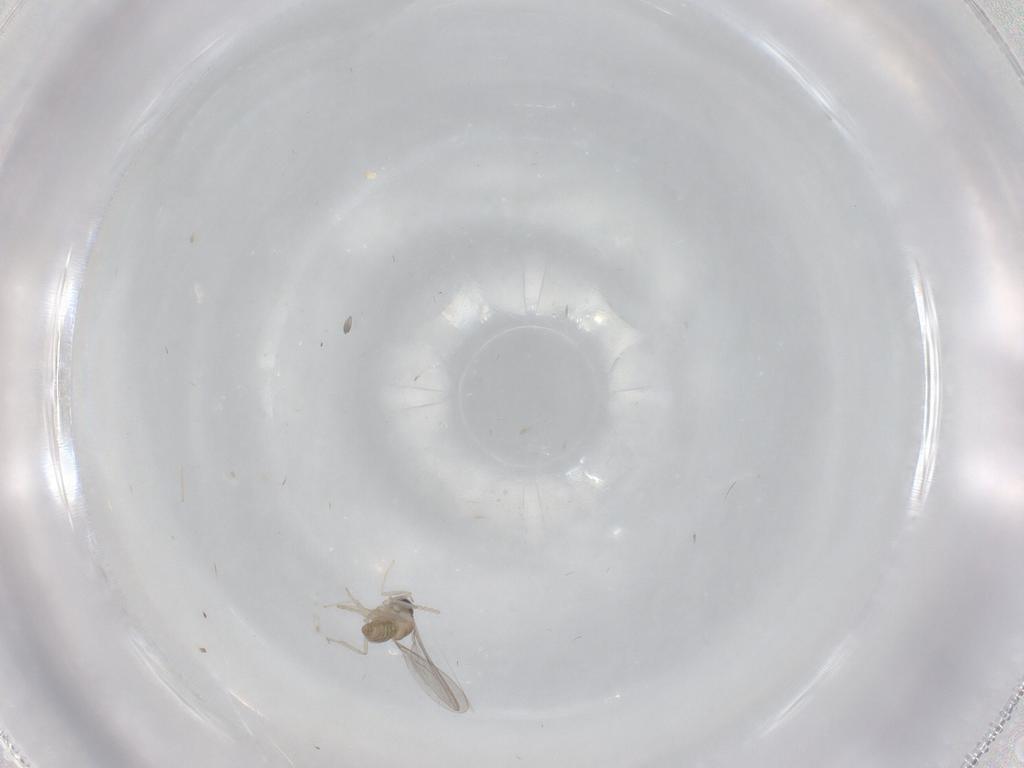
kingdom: Animalia
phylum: Arthropoda
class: Insecta
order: Diptera
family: Cecidomyiidae
